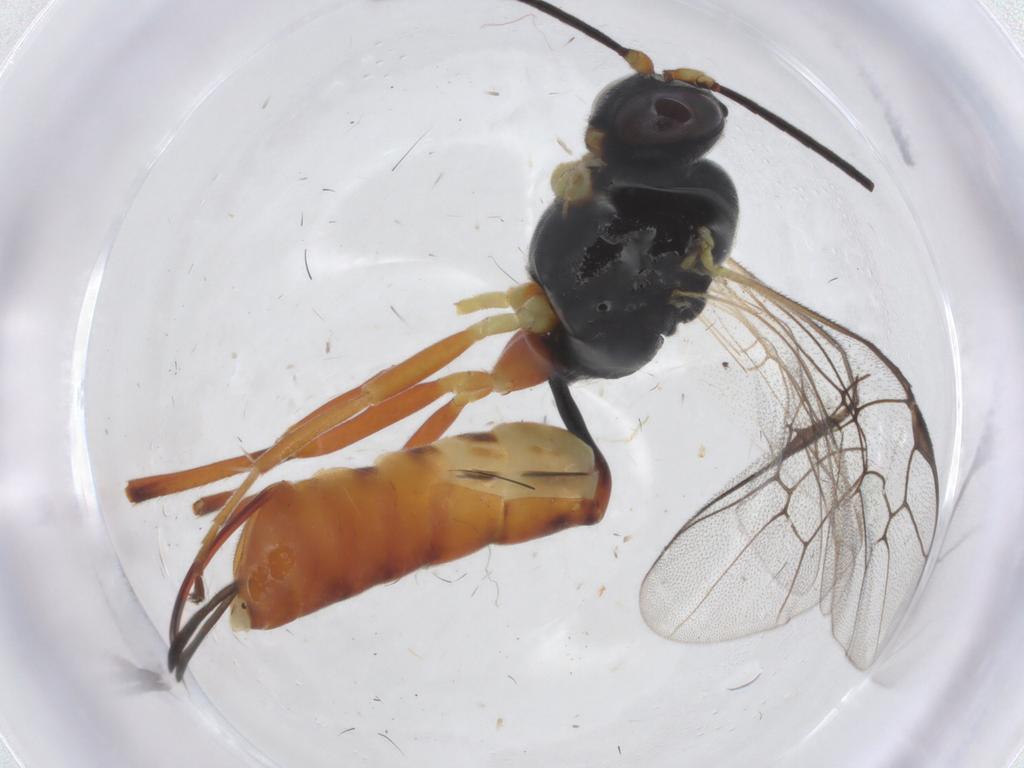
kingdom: Animalia
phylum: Arthropoda
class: Insecta
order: Hymenoptera
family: Ichneumonidae
